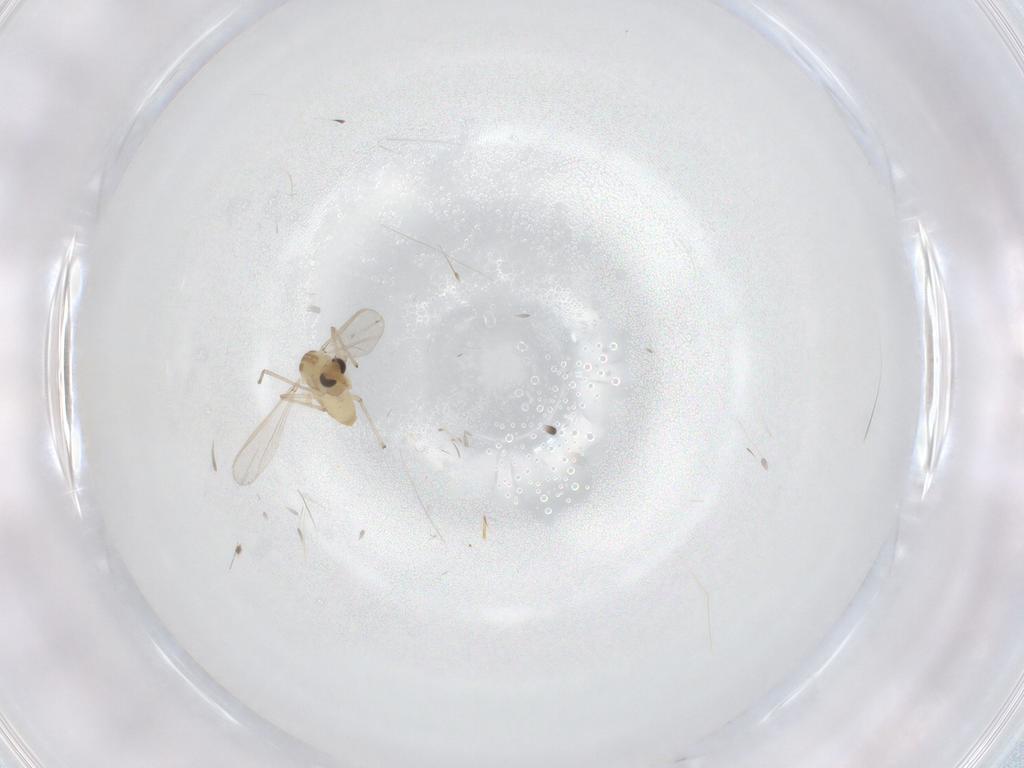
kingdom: Animalia
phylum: Arthropoda
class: Insecta
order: Diptera
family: Chironomidae
